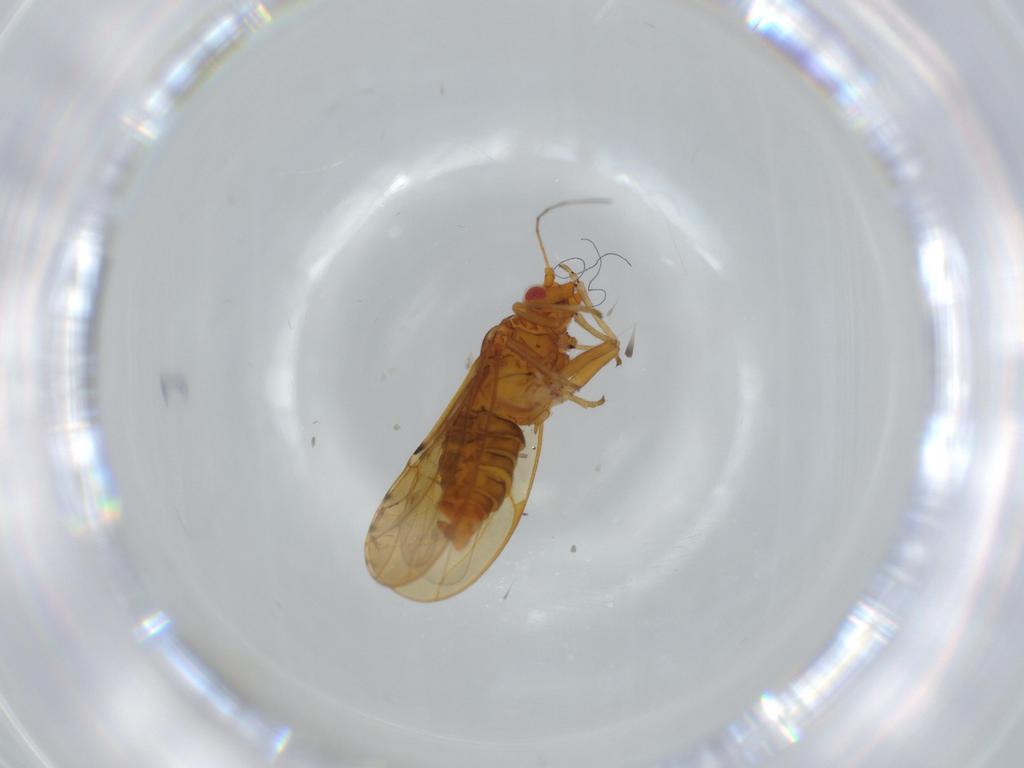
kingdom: Animalia
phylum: Arthropoda
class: Insecta
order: Hemiptera
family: Psylloidea_incertae_sedis
